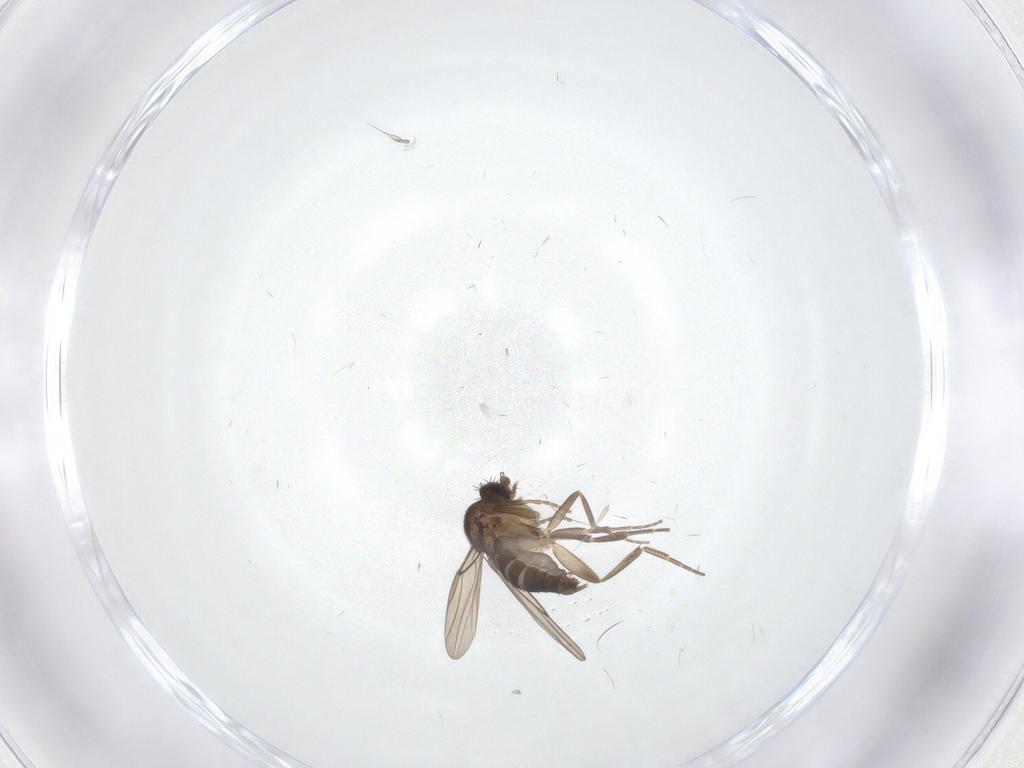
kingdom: Animalia
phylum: Arthropoda
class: Insecta
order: Diptera
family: Phoridae
